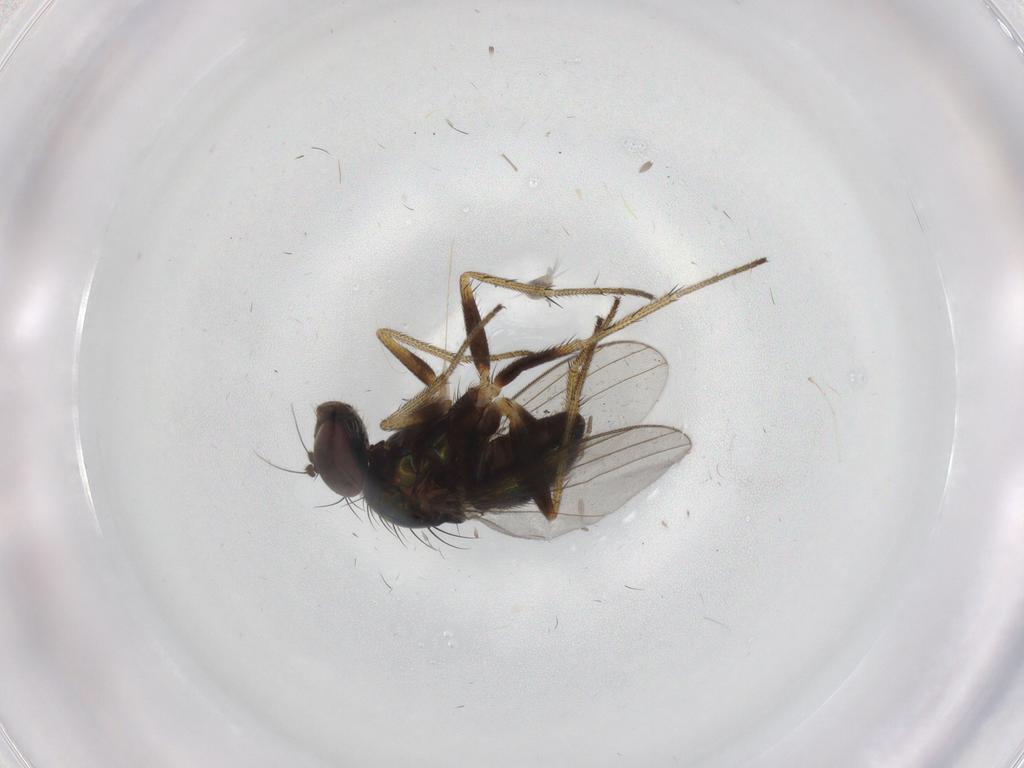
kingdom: Animalia
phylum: Arthropoda
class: Insecta
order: Diptera
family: Dolichopodidae
